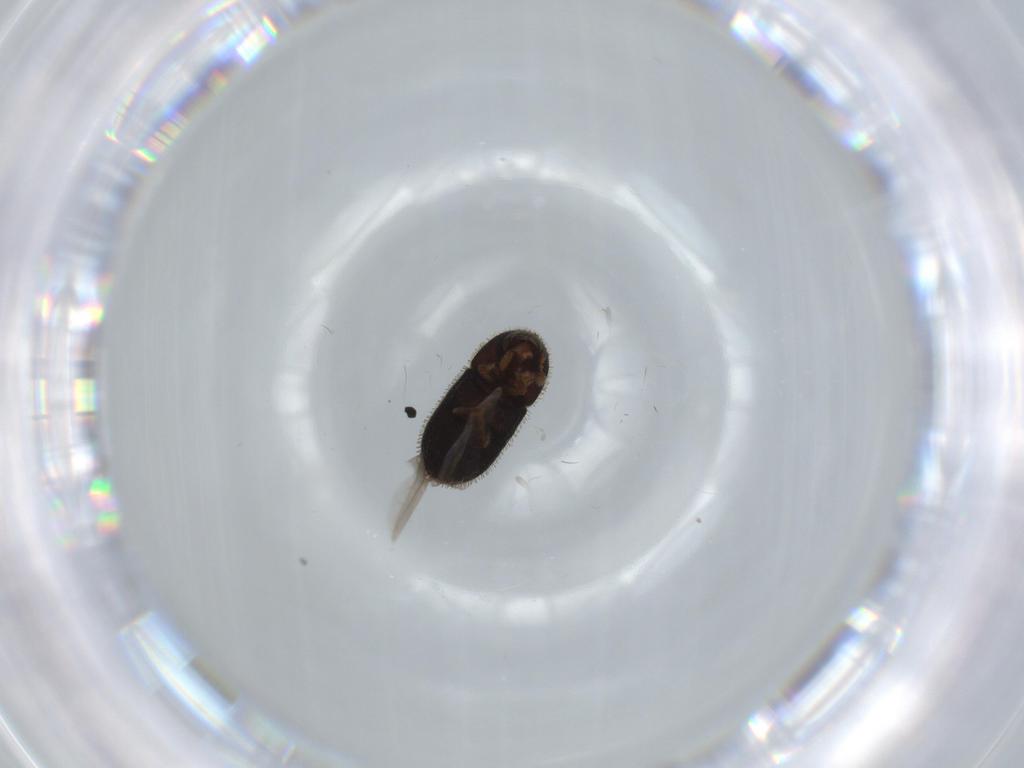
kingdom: Animalia
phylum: Arthropoda
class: Insecta
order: Coleoptera
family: Curculionidae
